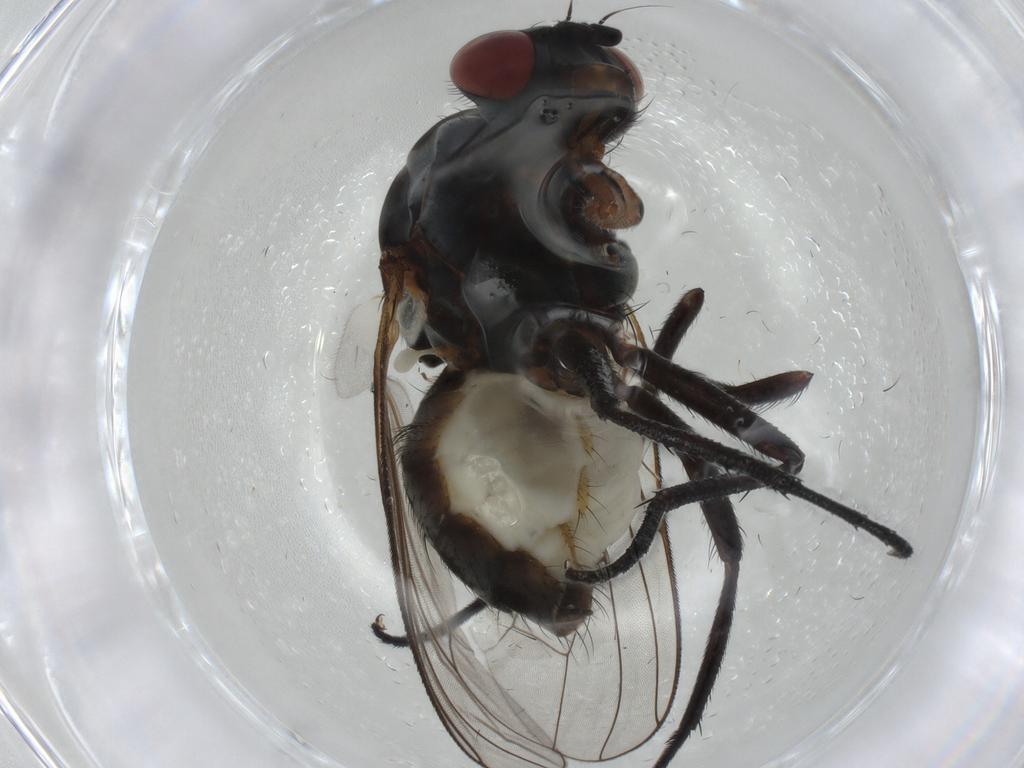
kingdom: Animalia
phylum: Arthropoda
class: Insecta
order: Diptera
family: Anthomyiidae
